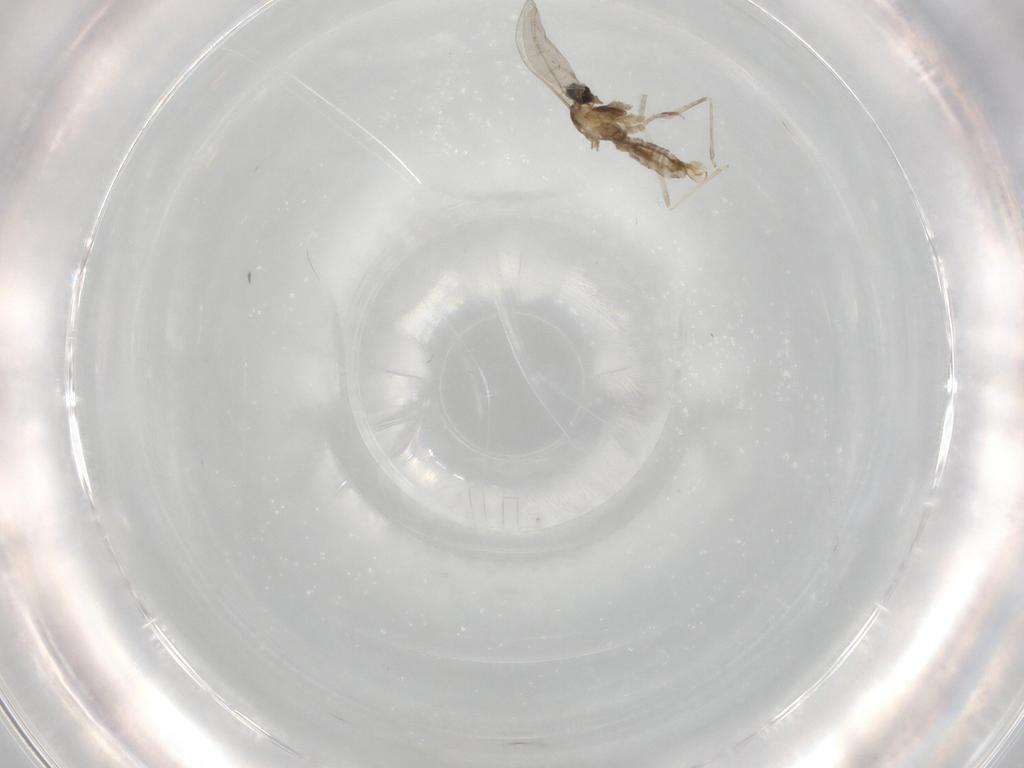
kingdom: Animalia
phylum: Arthropoda
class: Insecta
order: Diptera
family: Cecidomyiidae
